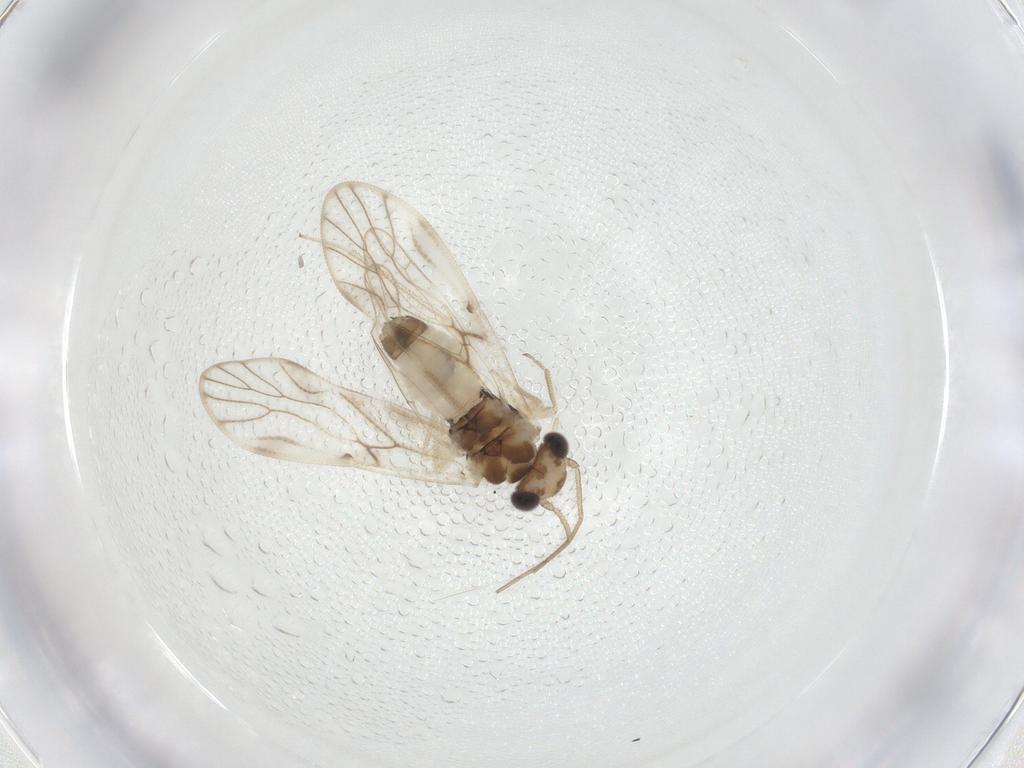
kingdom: Animalia
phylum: Arthropoda
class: Insecta
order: Psocodea
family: Caeciliusidae
